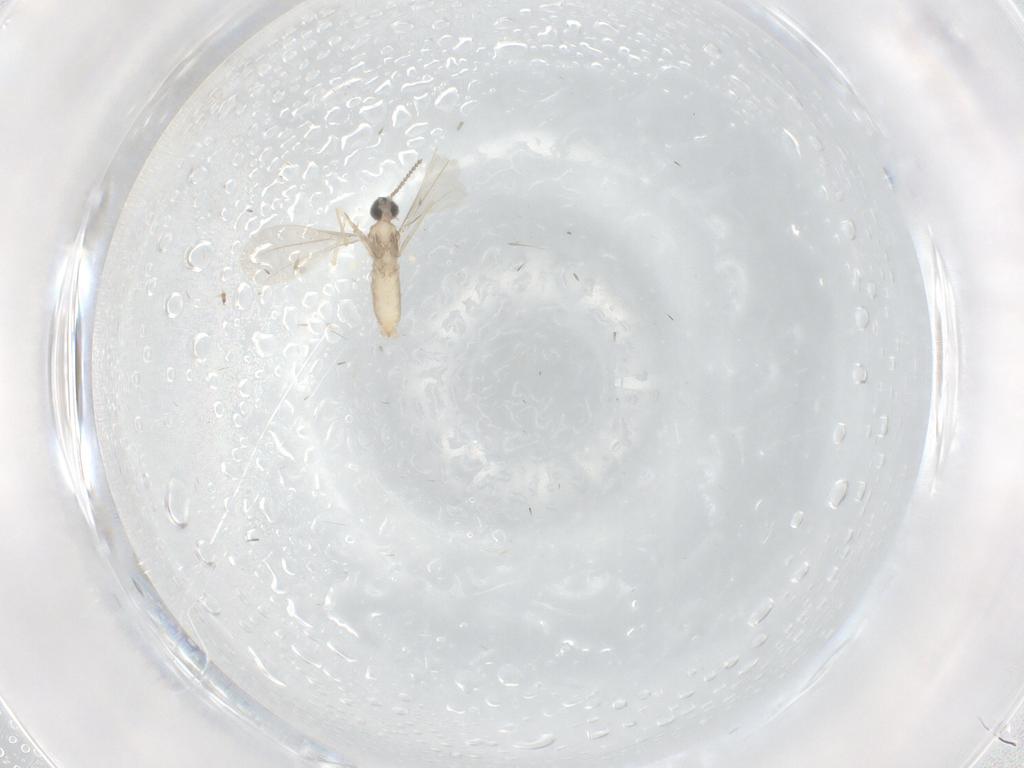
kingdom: Animalia
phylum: Arthropoda
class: Insecta
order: Diptera
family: Cecidomyiidae
